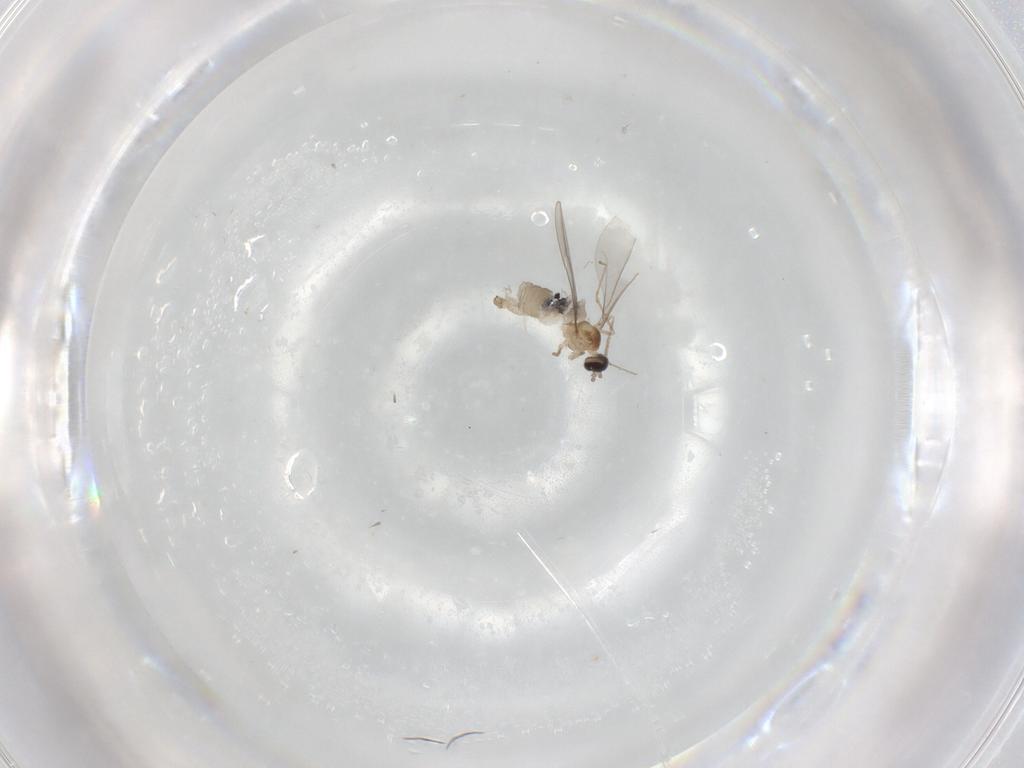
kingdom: Animalia
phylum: Arthropoda
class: Insecta
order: Diptera
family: Cecidomyiidae
